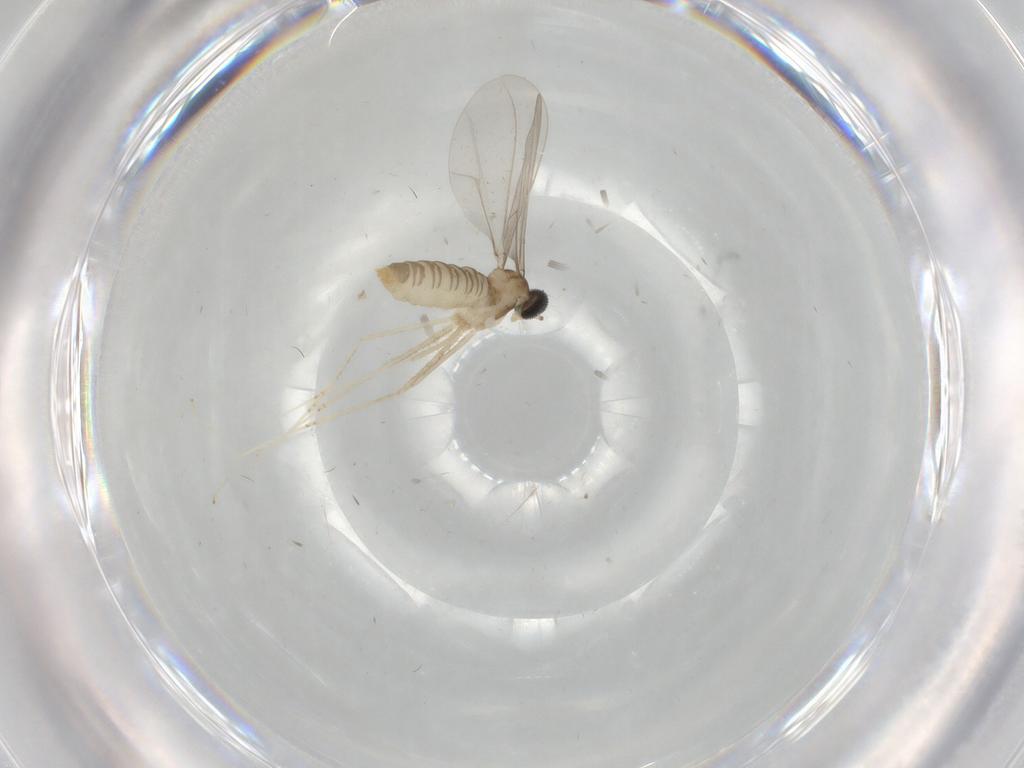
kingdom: Animalia
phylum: Arthropoda
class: Insecta
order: Diptera
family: Cecidomyiidae
